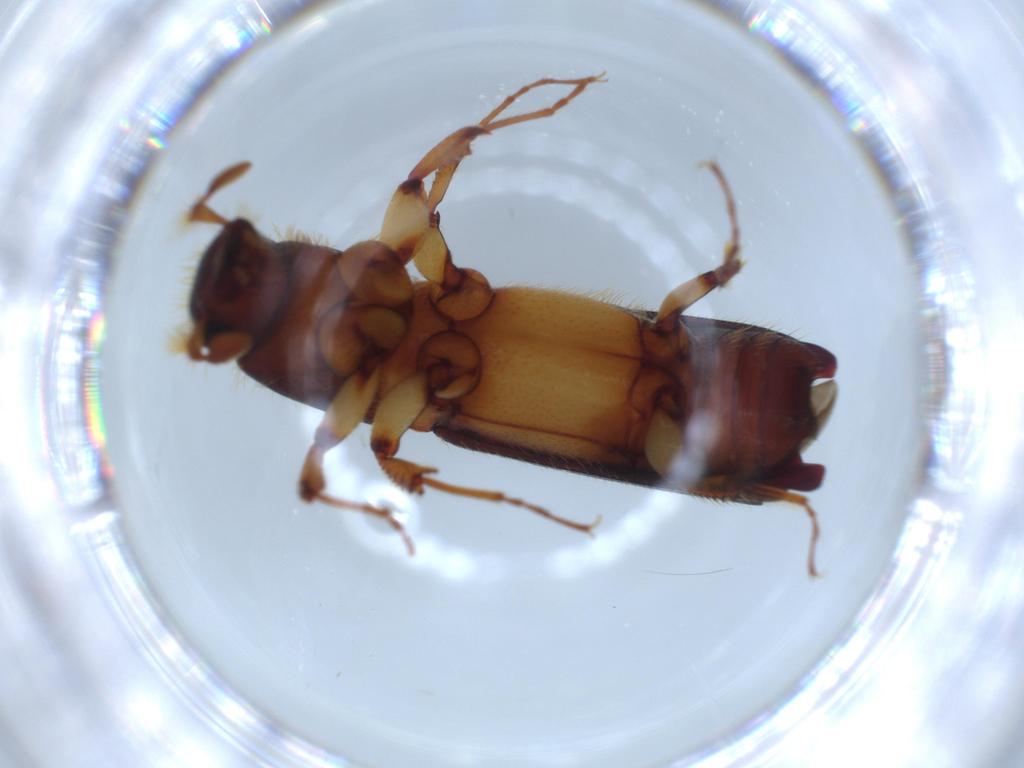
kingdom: Animalia
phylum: Arthropoda
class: Insecta
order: Coleoptera
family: Curculionidae
